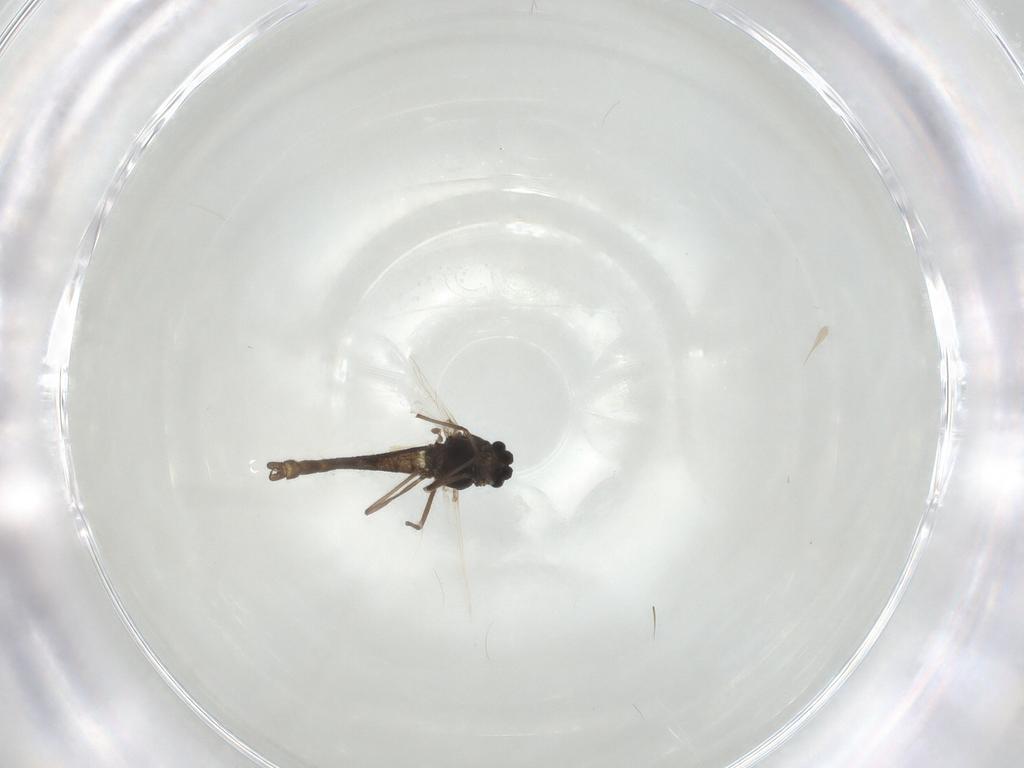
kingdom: Animalia
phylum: Arthropoda
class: Insecta
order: Diptera
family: Chironomidae
